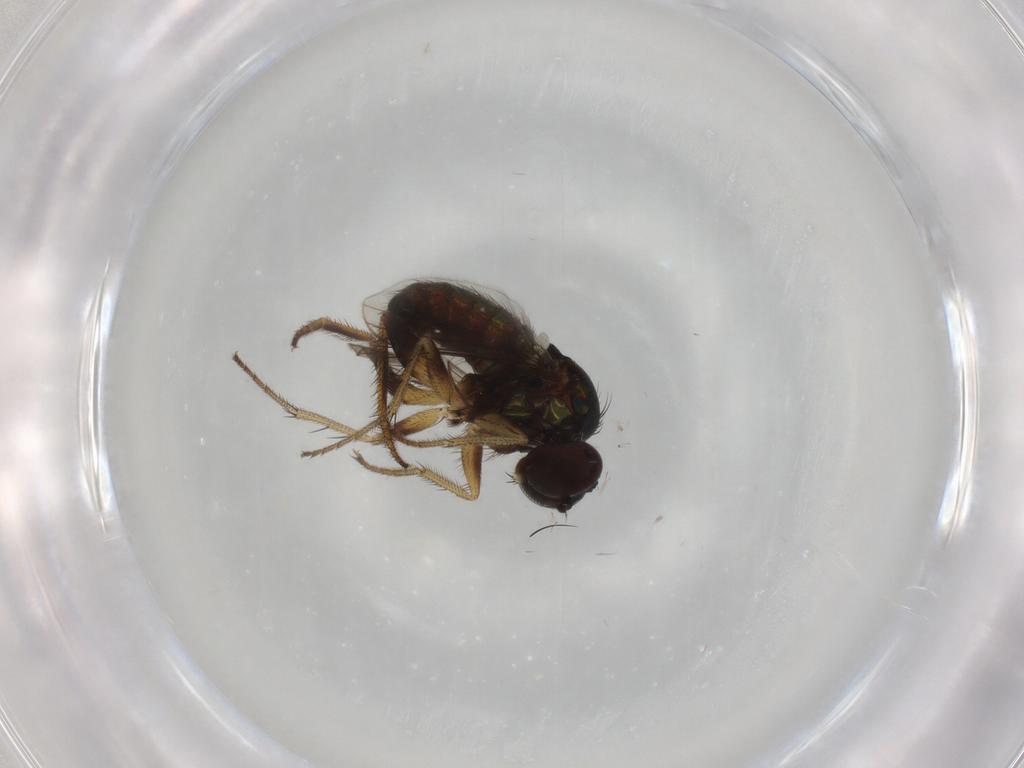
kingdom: Animalia
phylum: Arthropoda
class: Insecta
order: Diptera
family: Dolichopodidae
